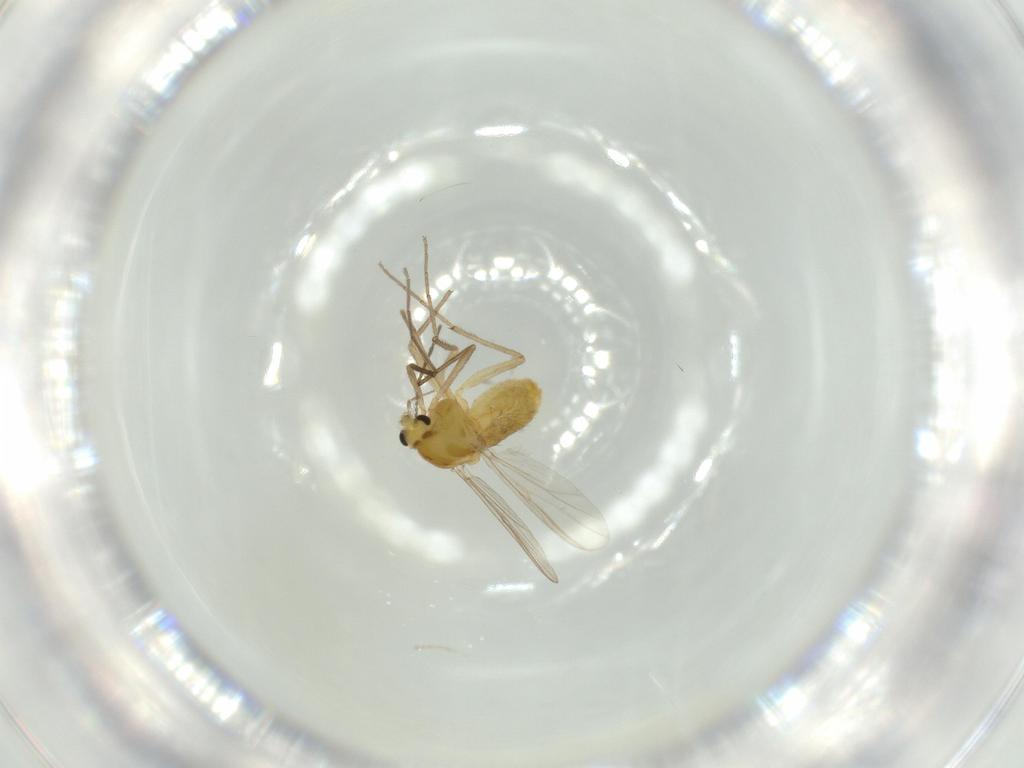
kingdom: Animalia
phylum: Arthropoda
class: Insecta
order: Diptera
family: Chironomidae
